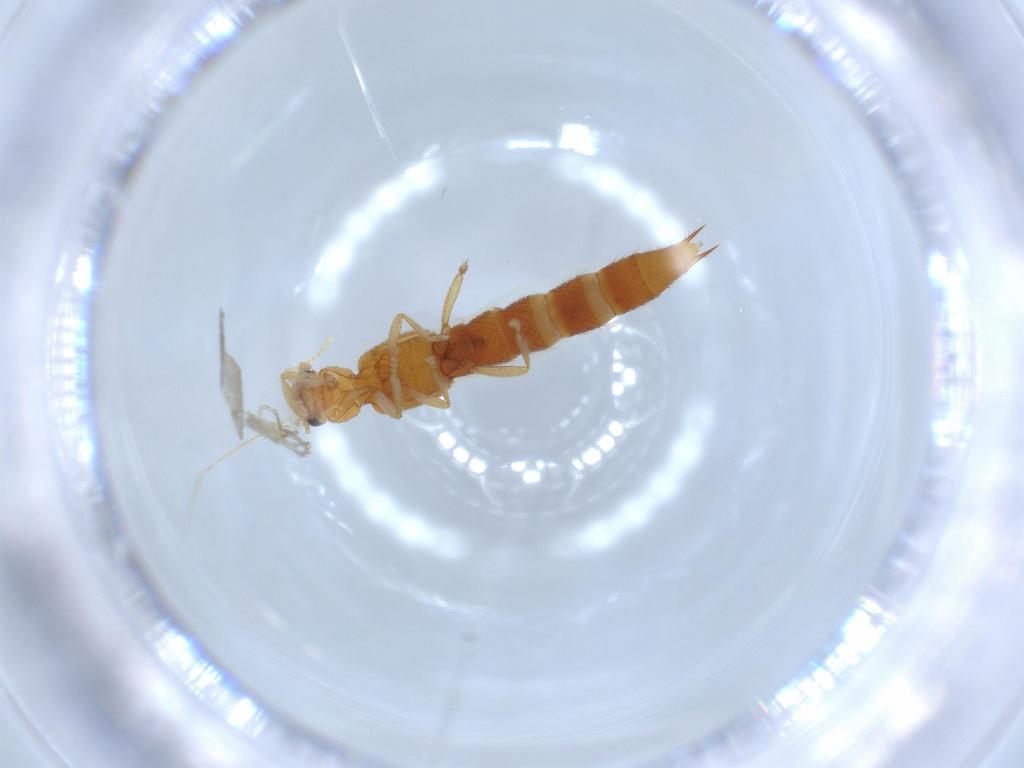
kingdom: Animalia
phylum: Arthropoda
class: Insecta
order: Coleoptera
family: Staphylinidae
